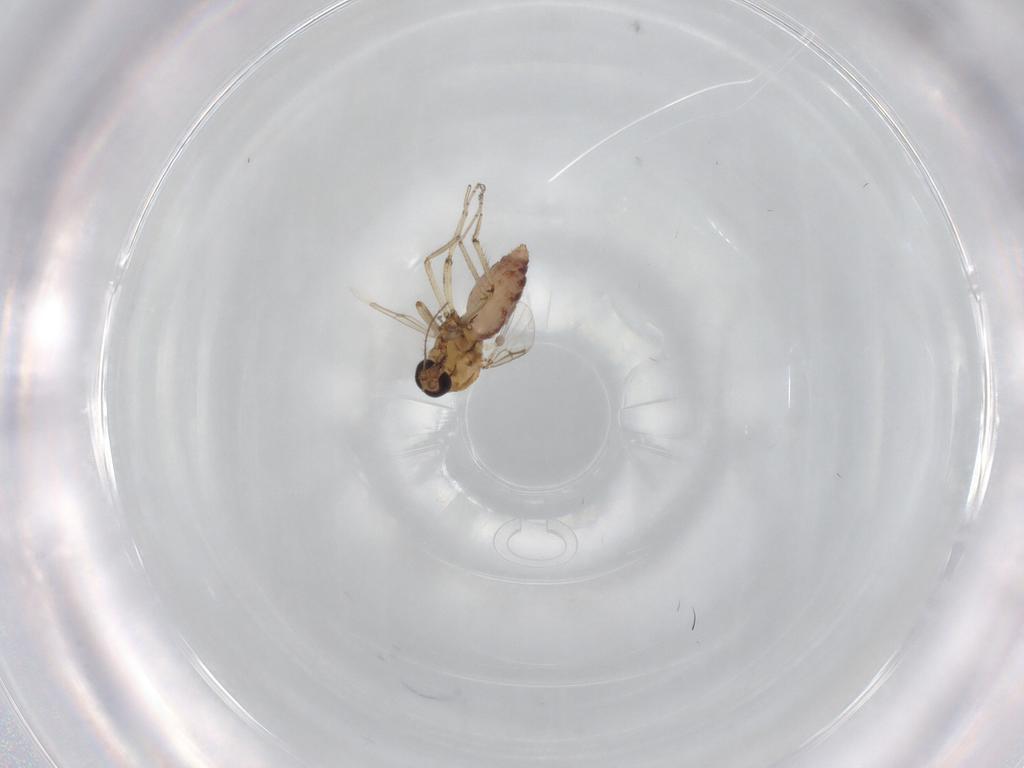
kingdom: Animalia
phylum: Arthropoda
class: Insecta
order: Diptera
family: Ceratopogonidae
